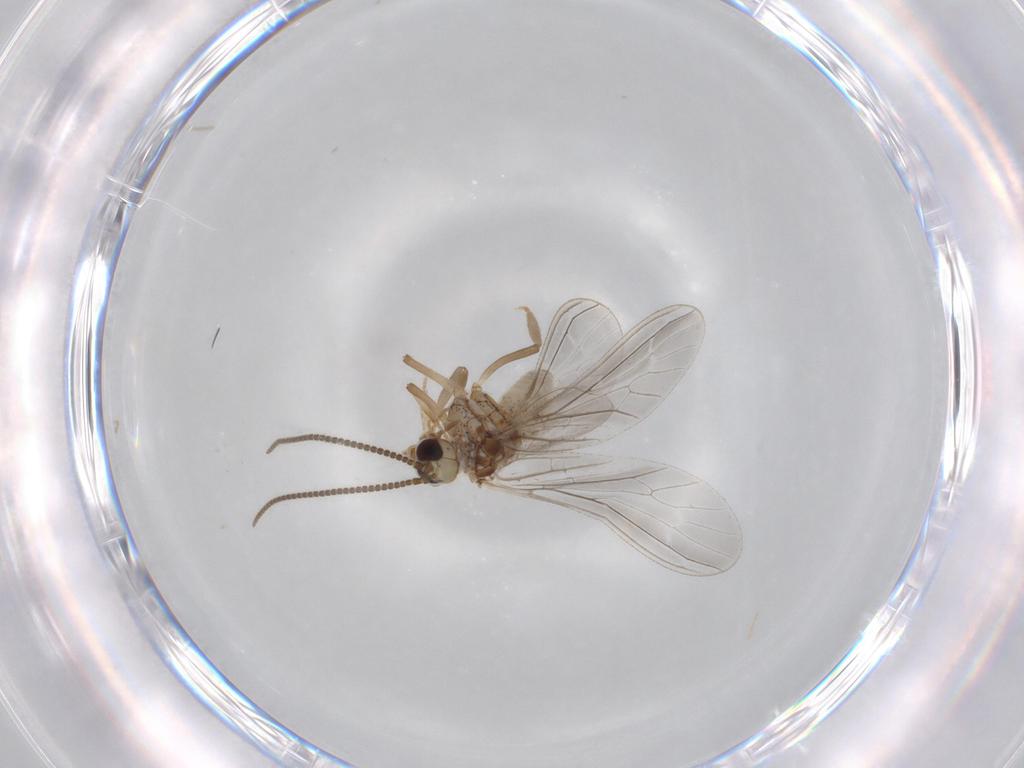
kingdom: Animalia
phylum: Arthropoda
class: Insecta
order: Neuroptera
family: Coniopterygidae
